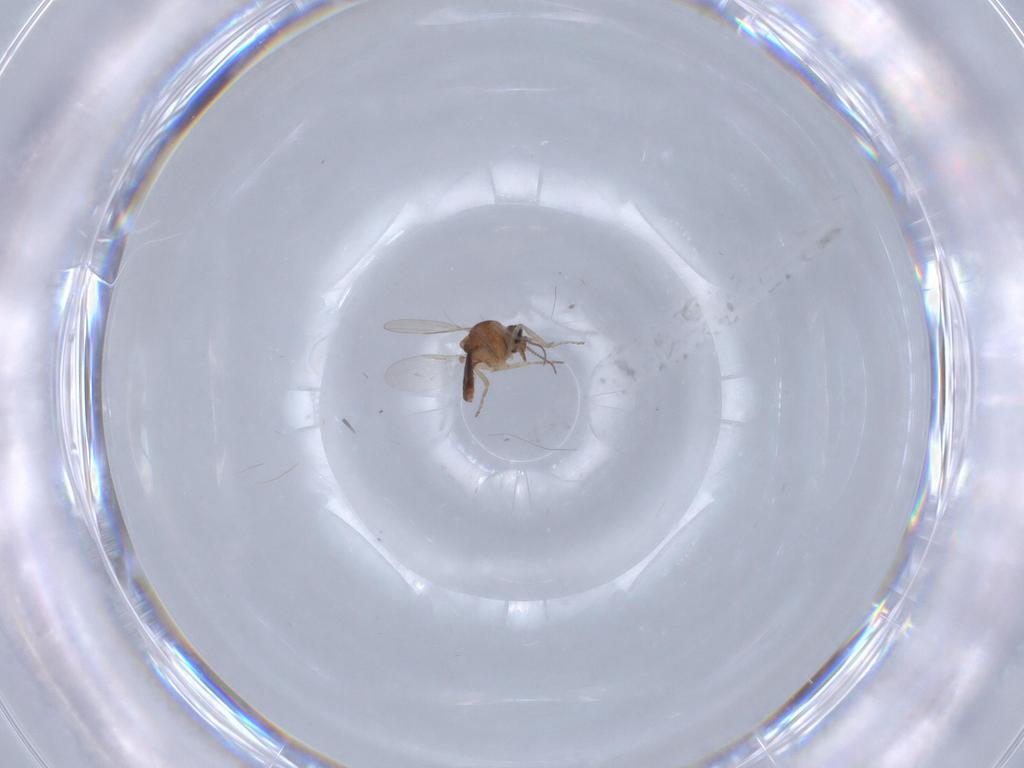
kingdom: Animalia
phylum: Arthropoda
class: Insecta
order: Diptera
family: Ceratopogonidae
